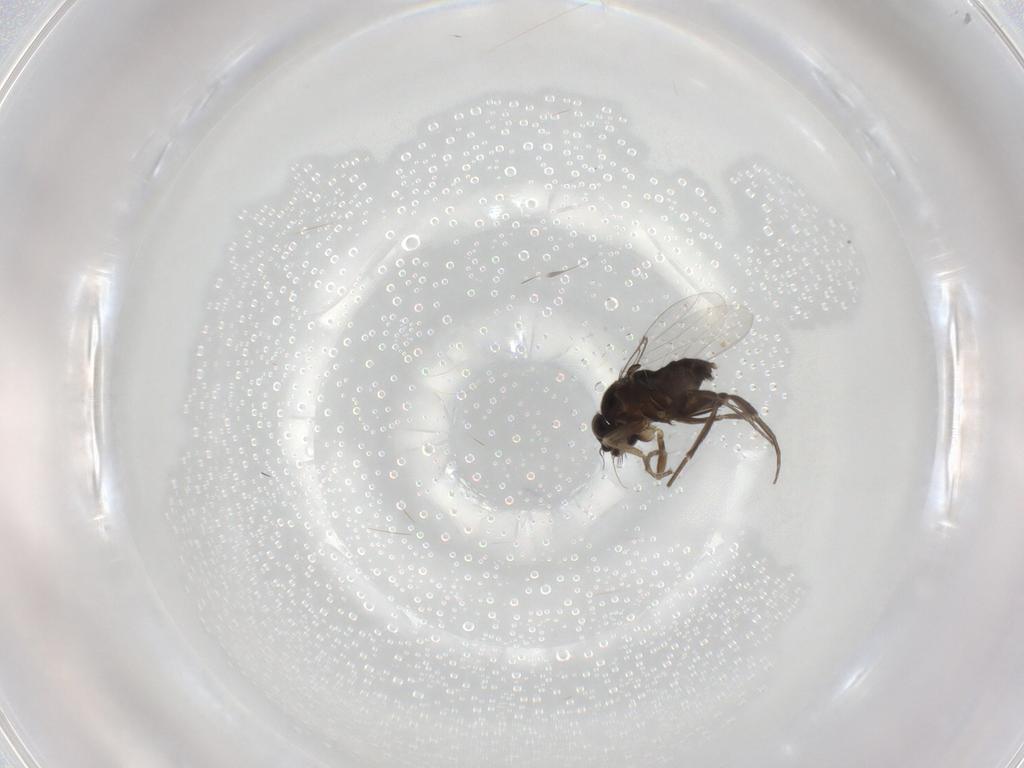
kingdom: Animalia
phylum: Arthropoda
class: Insecta
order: Diptera
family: Phoridae
